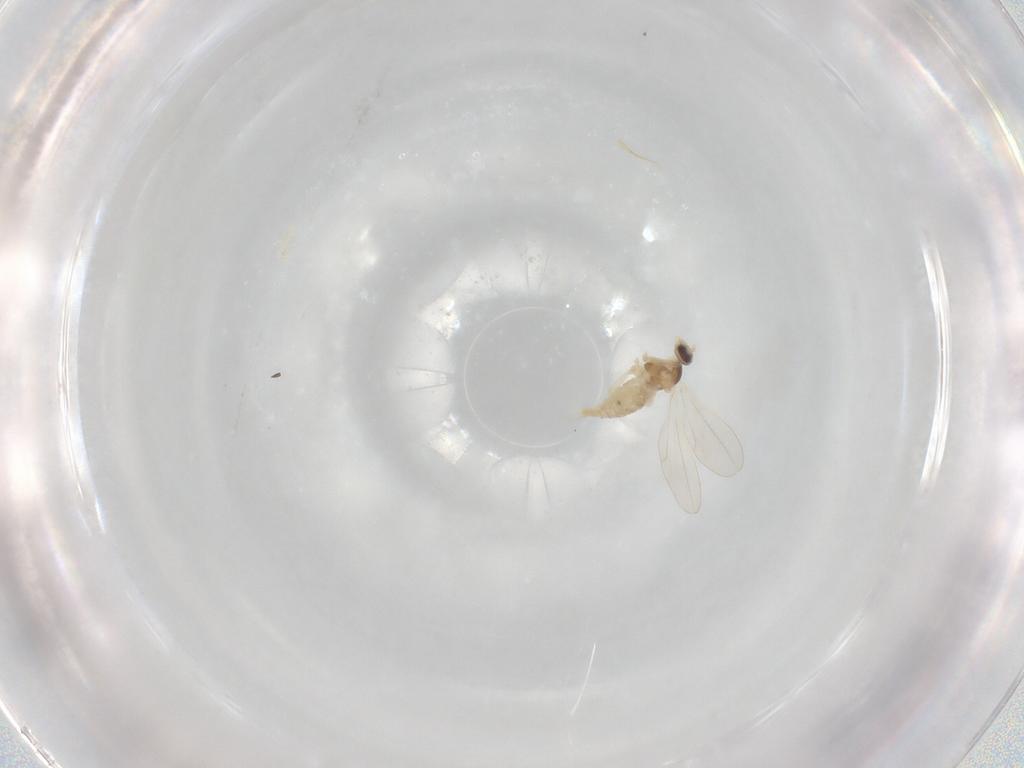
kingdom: Animalia
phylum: Arthropoda
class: Insecta
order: Diptera
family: Cecidomyiidae
